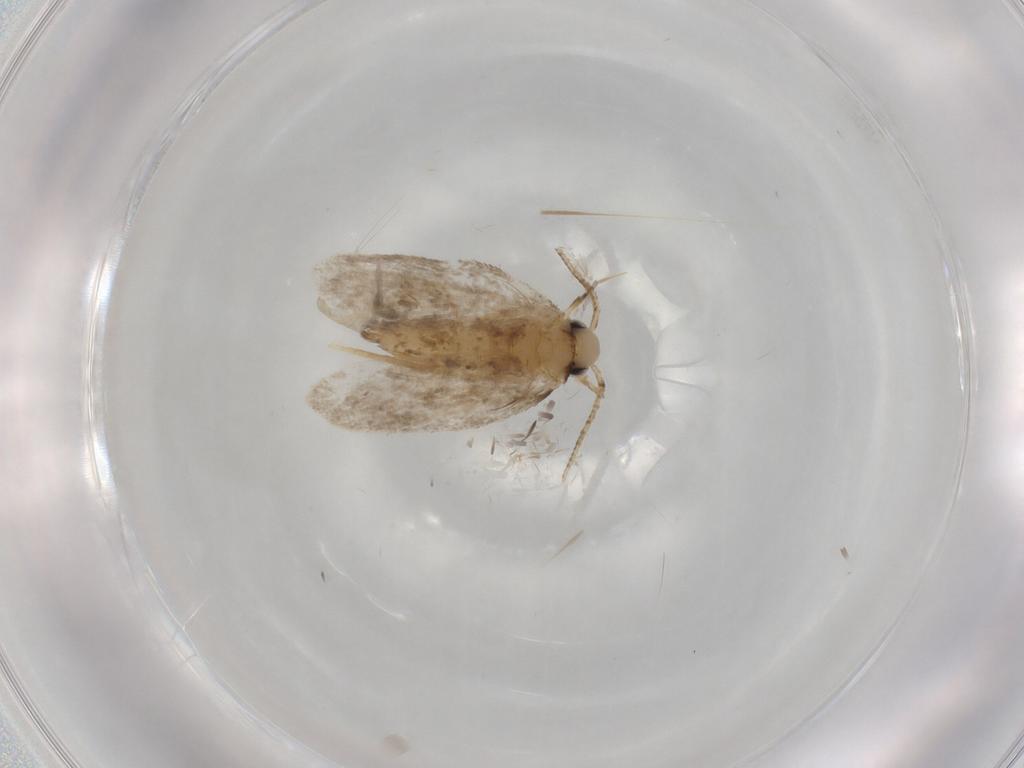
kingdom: Animalia
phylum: Arthropoda
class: Insecta
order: Lepidoptera
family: Psychidae
